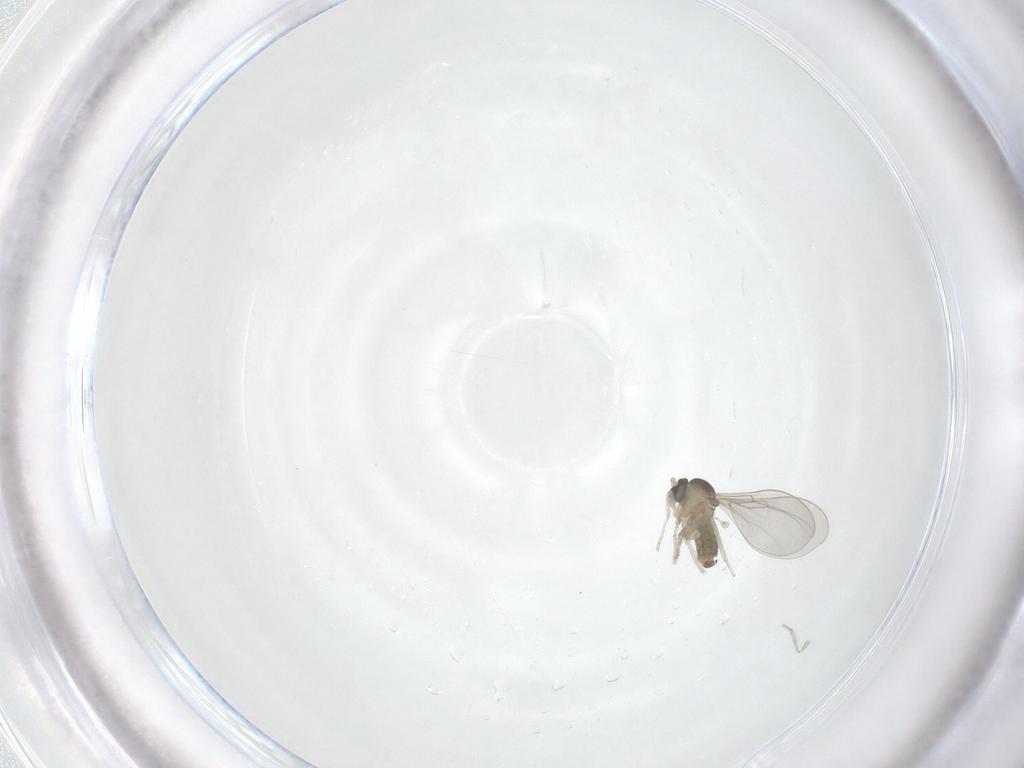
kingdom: Animalia
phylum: Arthropoda
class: Insecta
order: Diptera
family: Cecidomyiidae
